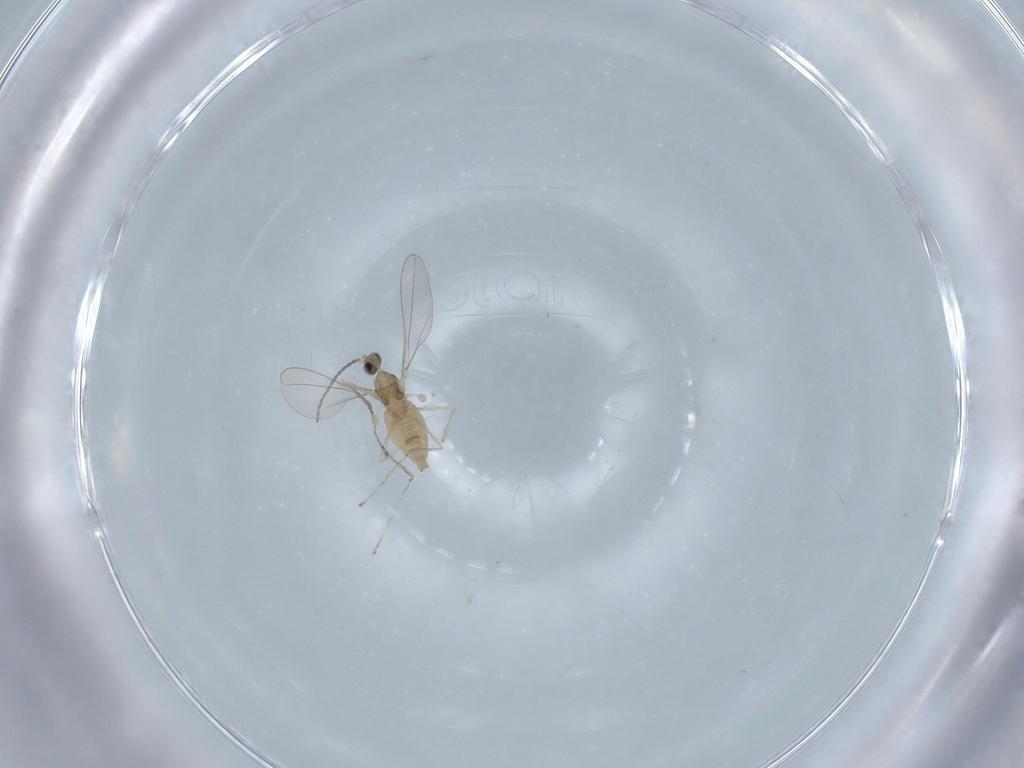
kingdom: Animalia
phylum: Arthropoda
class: Insecta
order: Diptera
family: Cecidomyiidae
